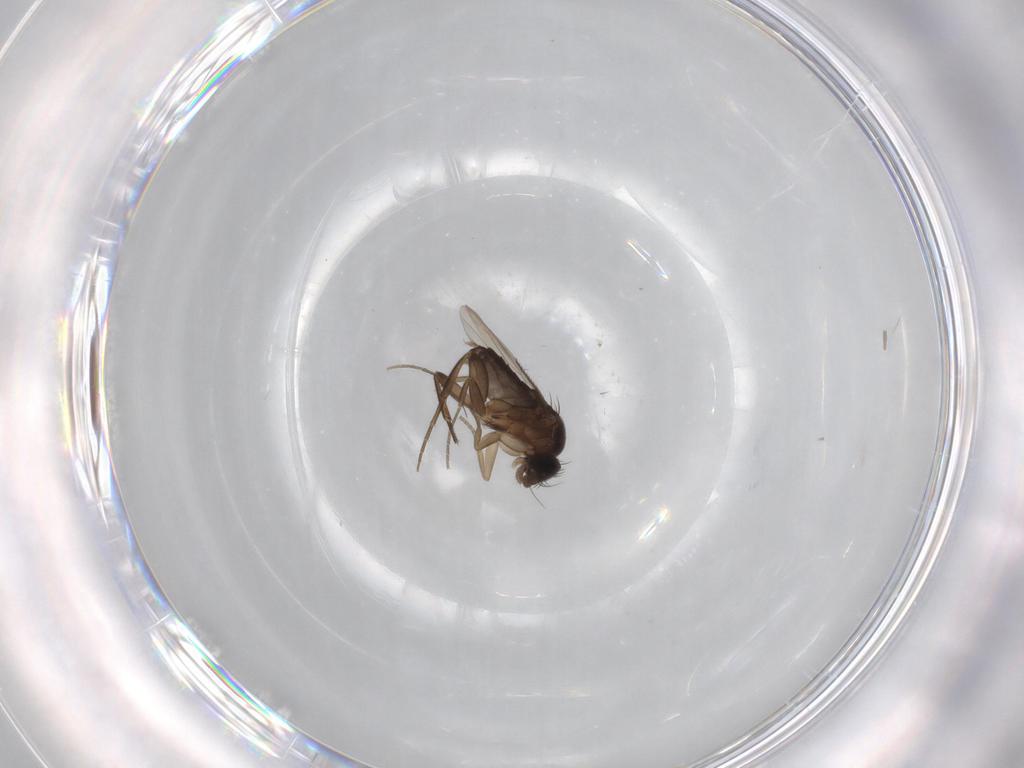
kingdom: Animalia
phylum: Arthropoda
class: Insecta
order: Diptera
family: Phoridae
